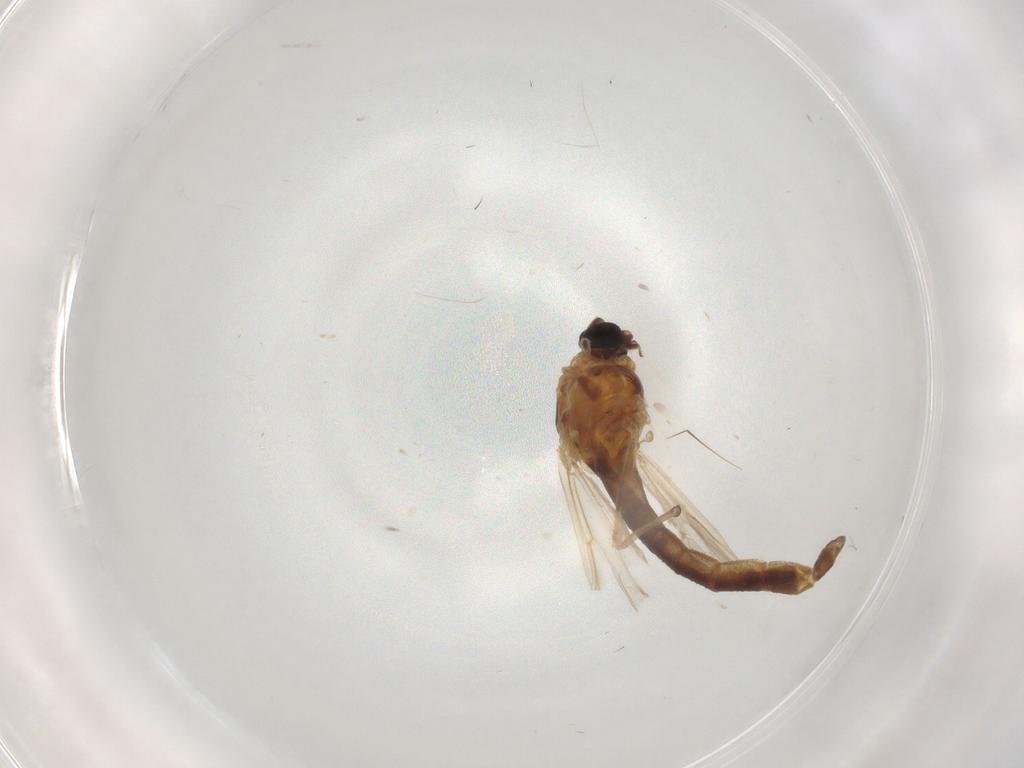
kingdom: Animalia
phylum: Arthropoda
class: Insecta
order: Diptera
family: Chironomidae
